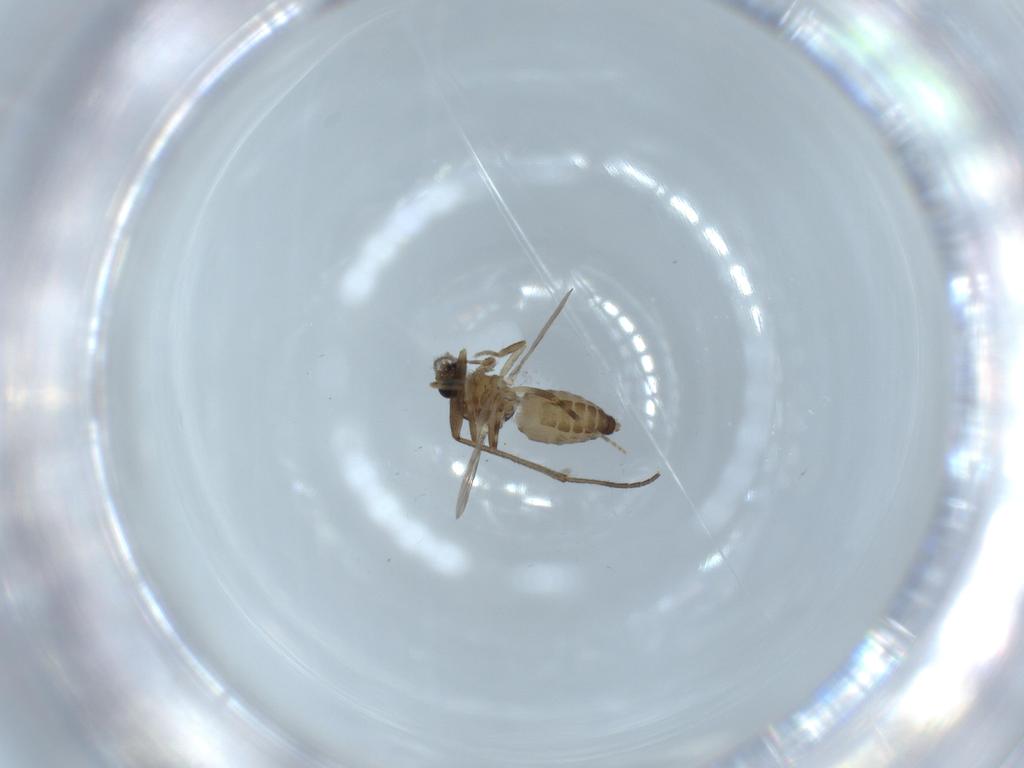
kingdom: Animalia
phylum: Arthropoda
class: Insecta
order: Diptera
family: Ceratopogonidae
